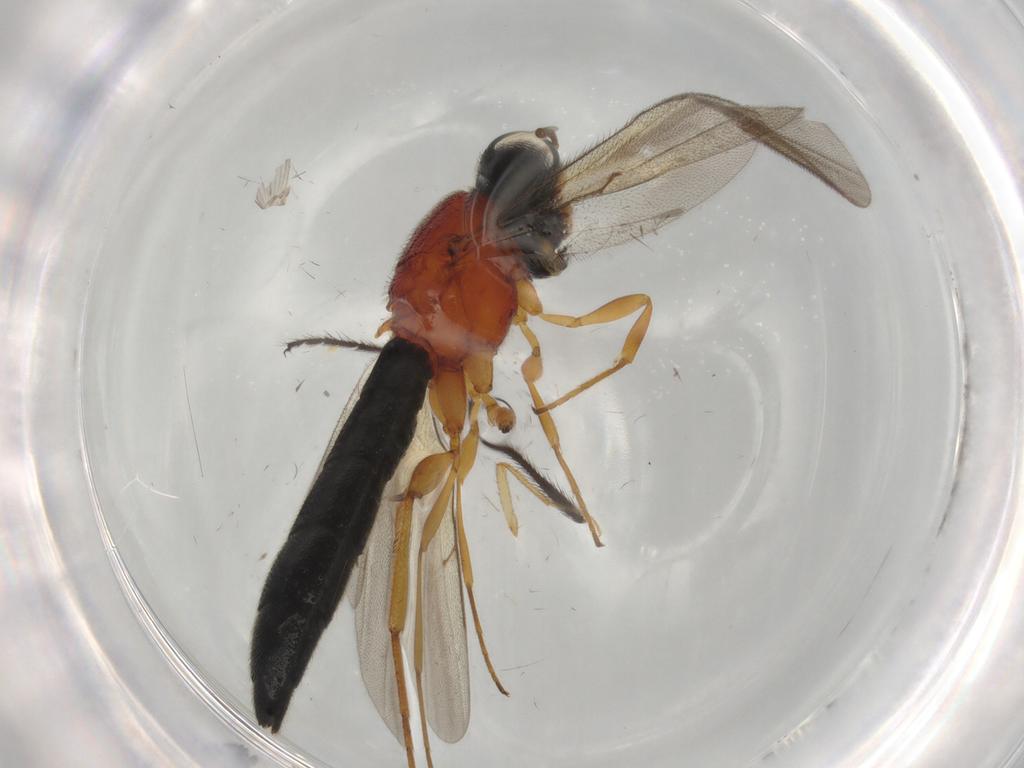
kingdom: Animalia
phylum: Arthropoda
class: Insecta
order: Hymenoptera
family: Scelionidae
